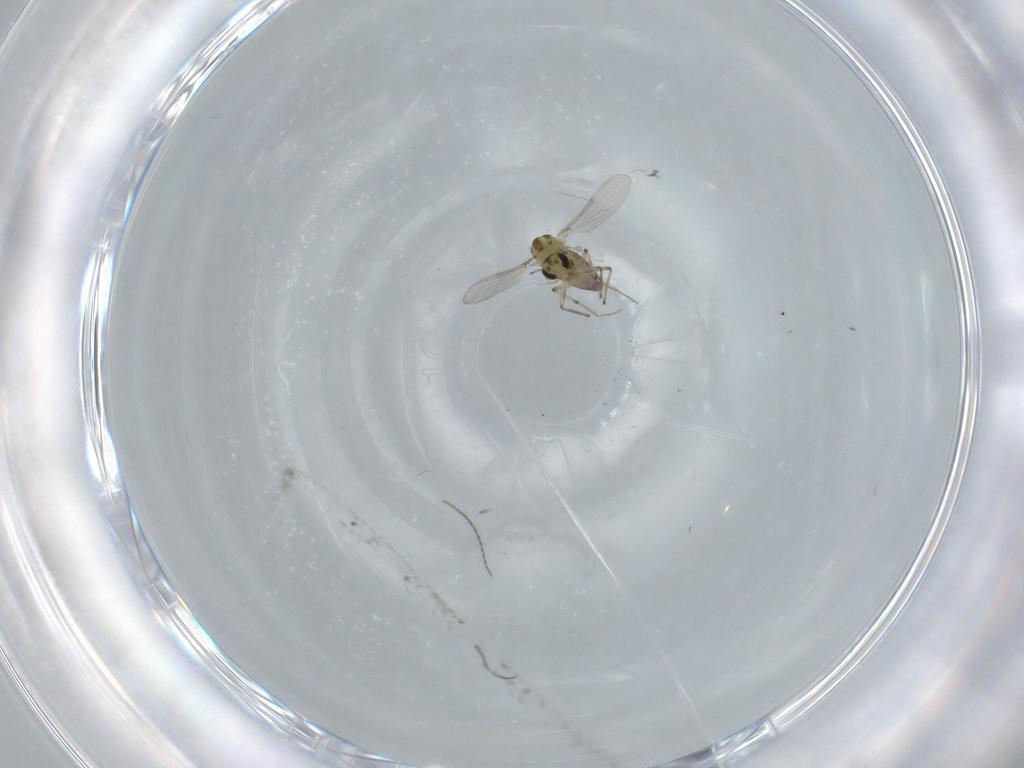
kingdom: Animalia
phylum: Arthropoda
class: Insecta
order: Diptera
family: Chironomidae
